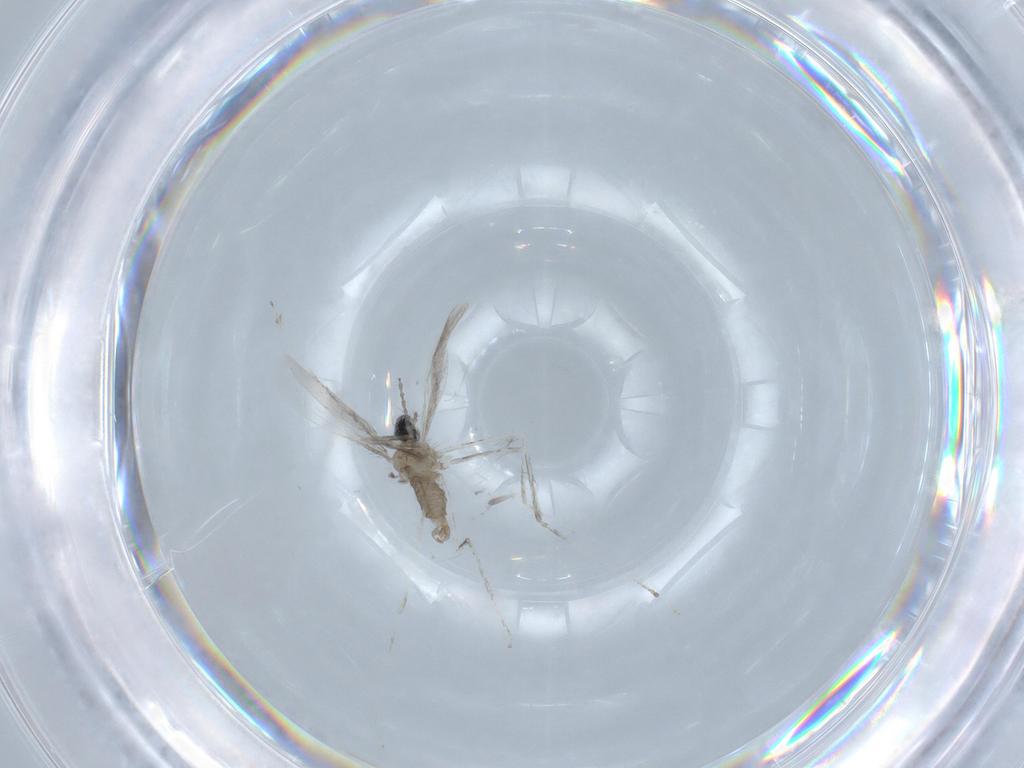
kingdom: Animalia
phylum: Arthropoda
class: Insecta
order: Diptera
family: Cecidomyiidae
